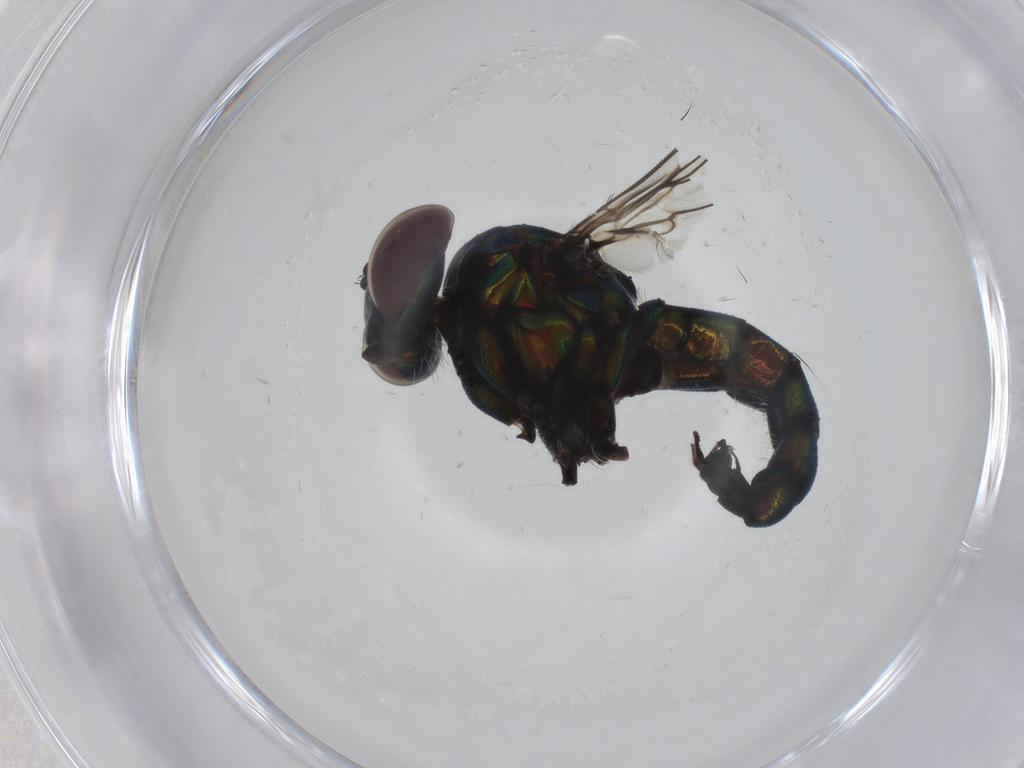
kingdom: Animalia
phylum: Arthropoda
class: Insecta
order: Diptera
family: Dolichopodidae
